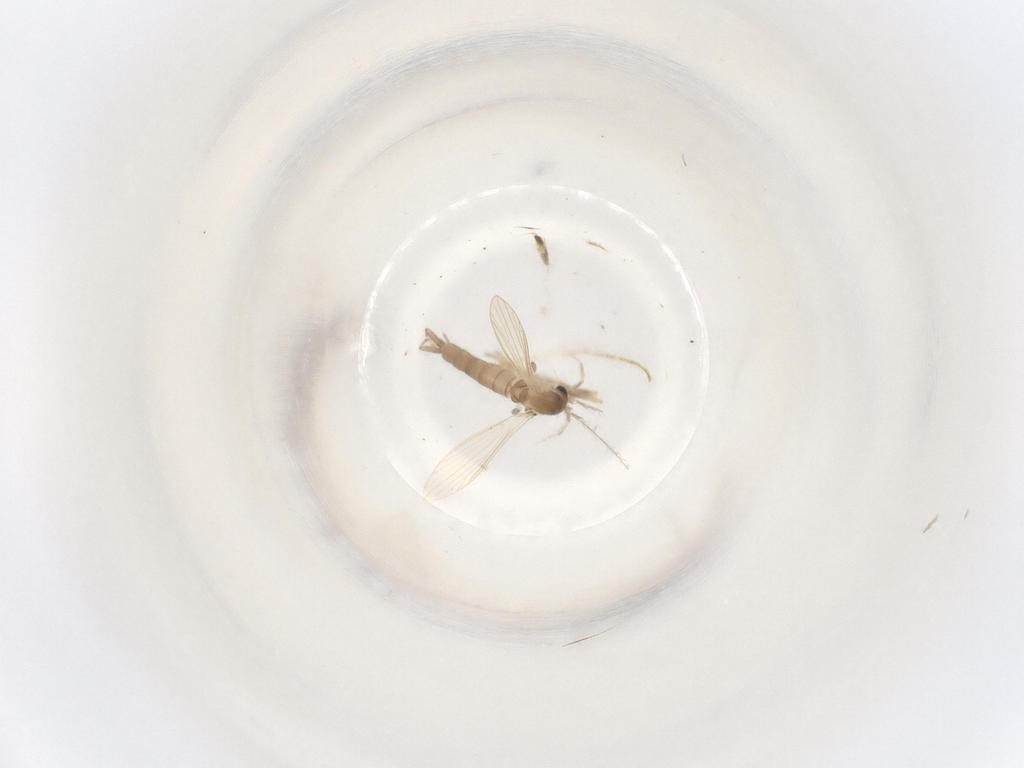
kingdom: Animalia
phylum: Arthropoda
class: Insecta
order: Diptera
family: Psychodidae
